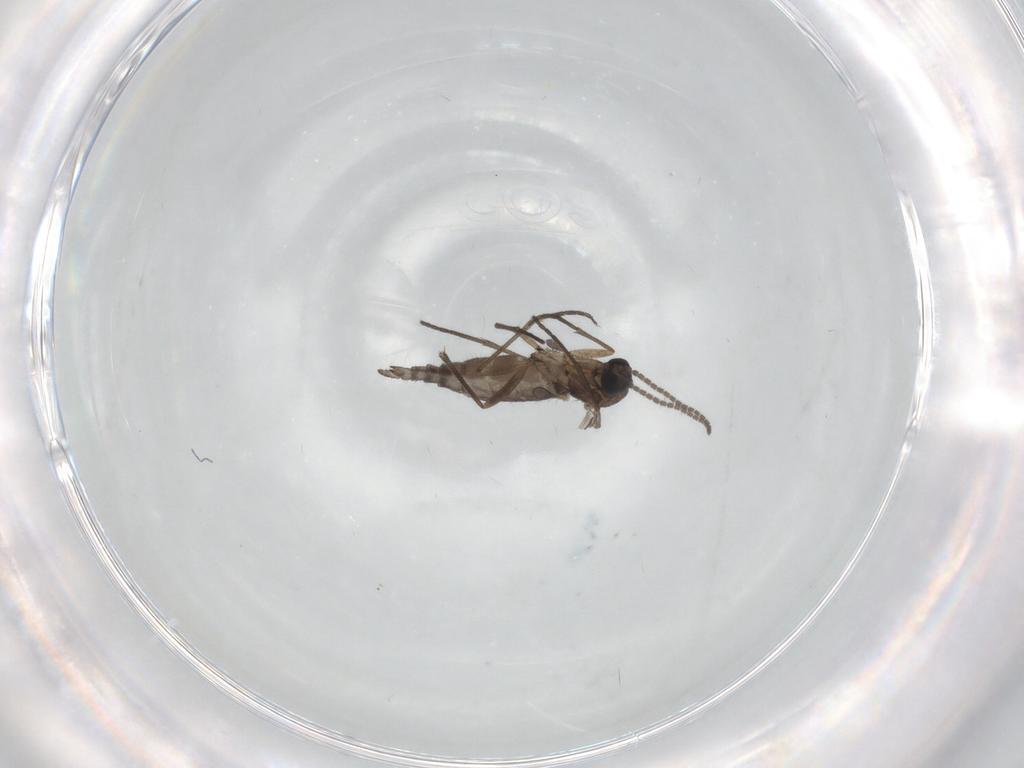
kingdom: Animalia
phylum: Arthropoda
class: Insecta
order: Diptera
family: Sciaridae
